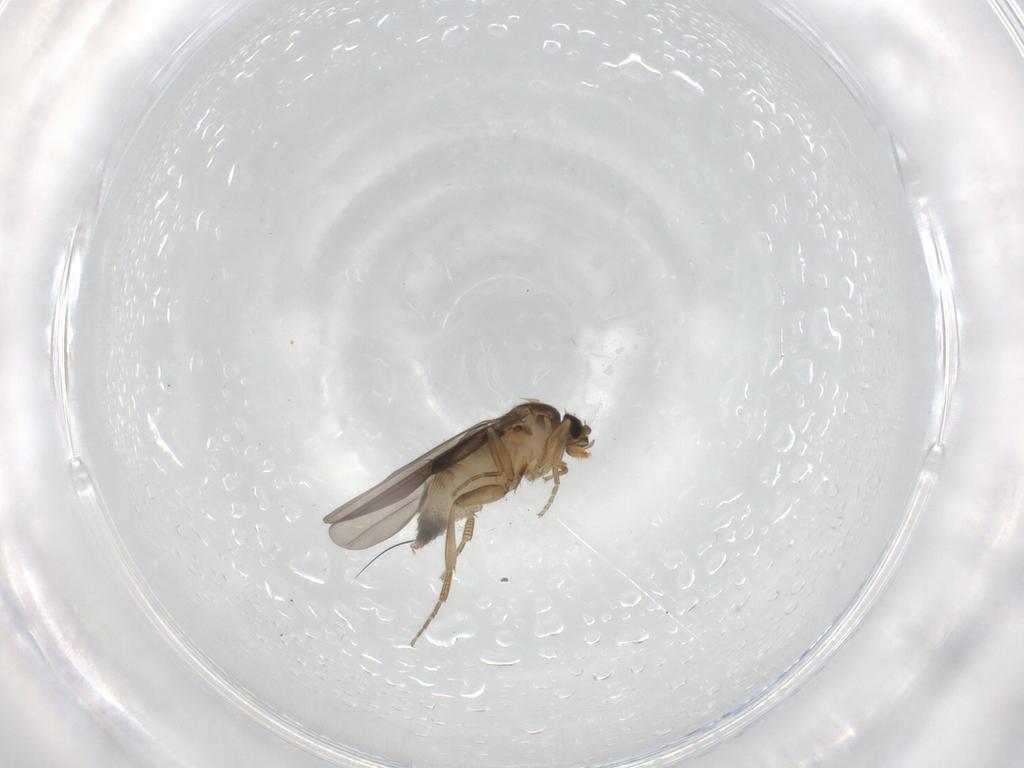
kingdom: Animalia
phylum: Arthropoda
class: Insecta
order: Diptera
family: Phoridae
